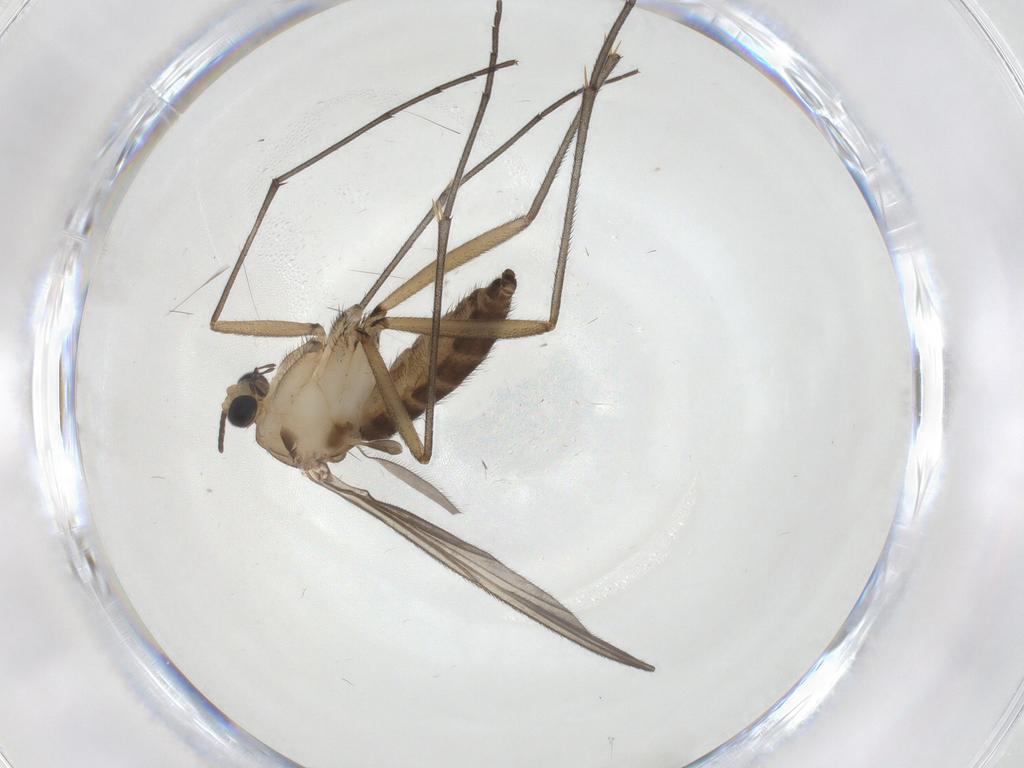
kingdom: Animalia
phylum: Arthropoda
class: Insecta
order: Diptera
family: Sciaridae
